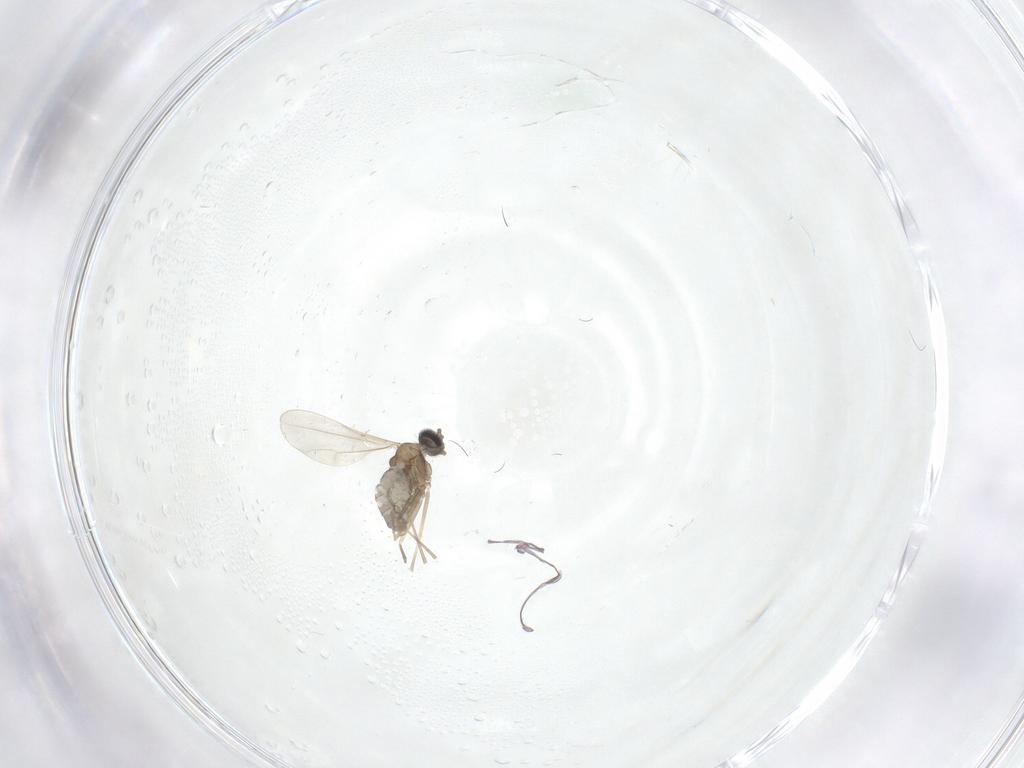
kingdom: Animalia
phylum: Arthropoda
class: Insecta
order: Diptera
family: Cecidomyiidae
